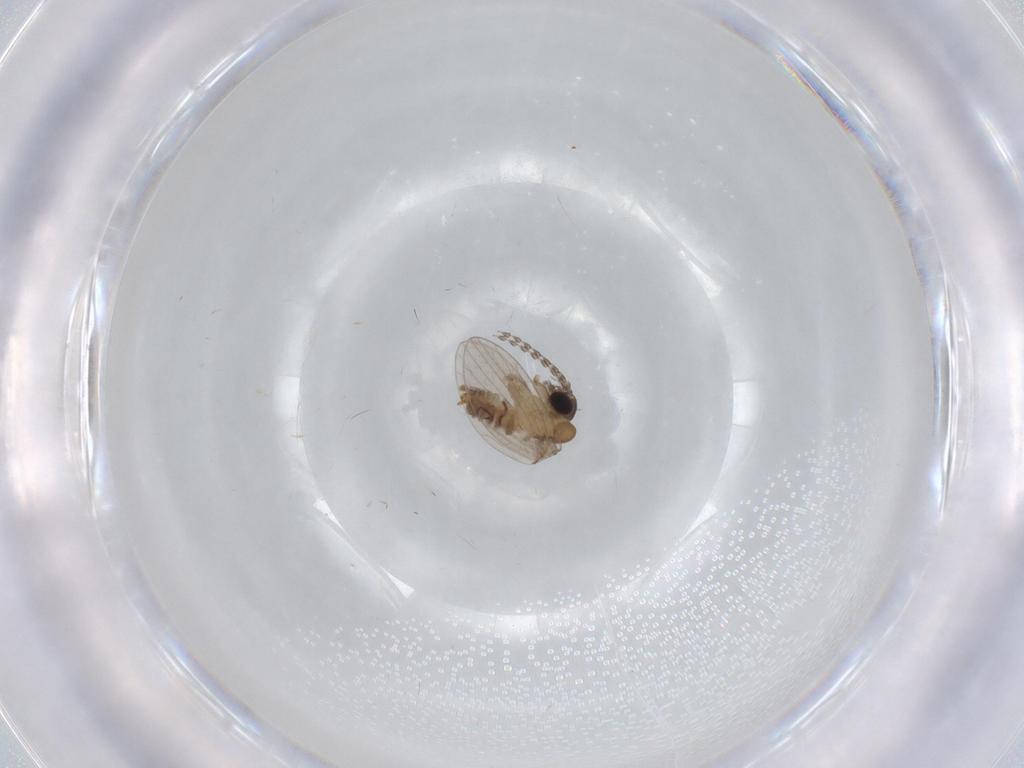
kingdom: Animalia
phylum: Arthropoda
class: Insecta
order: Diptera
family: Psychodidae
